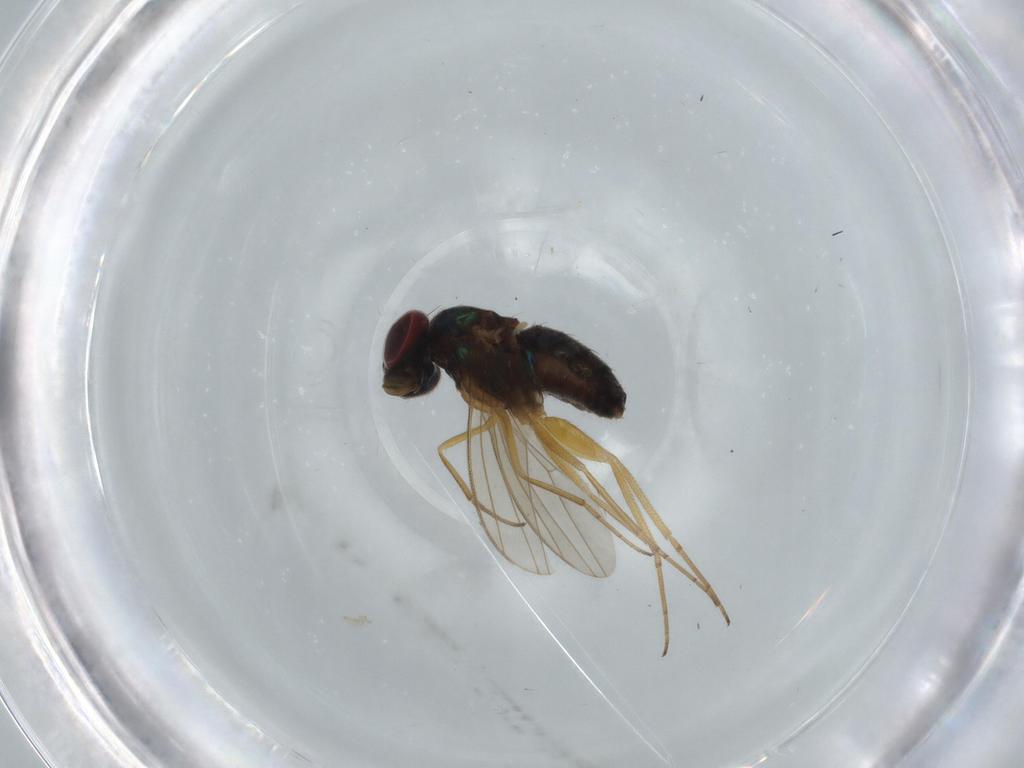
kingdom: Animalia
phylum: Arthropoda
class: Insecta
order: Diptera
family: Dolichopodidae
